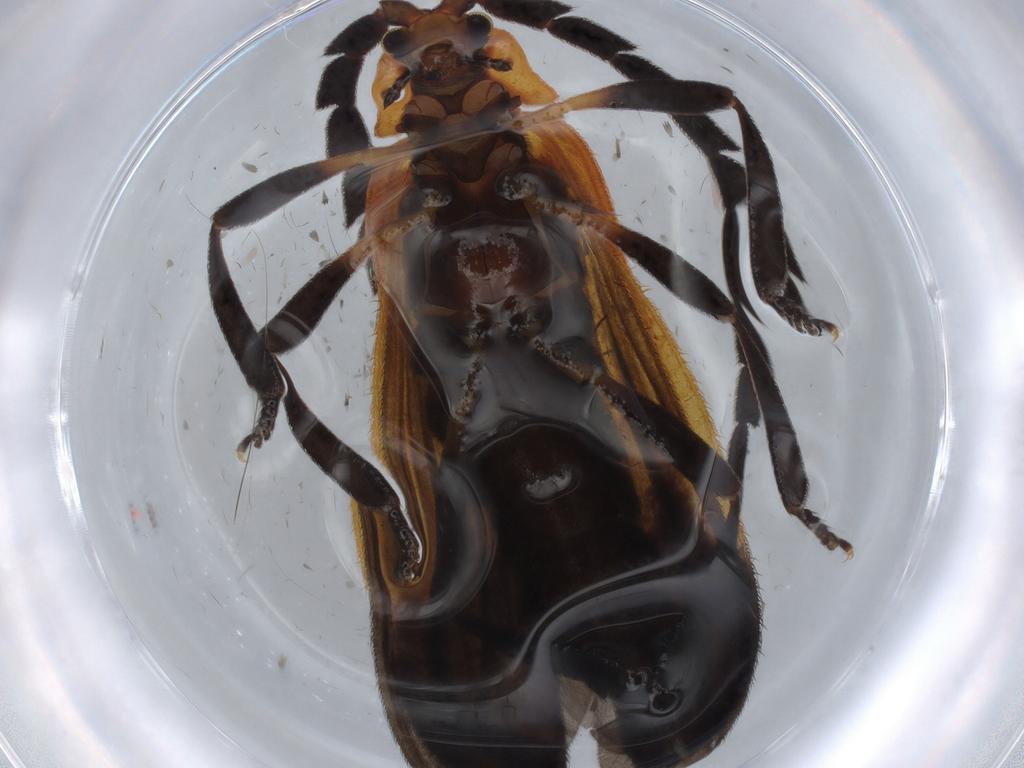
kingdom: Animalia
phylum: Arthropoda
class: Insecta
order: Coleoptera
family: Lycidae
